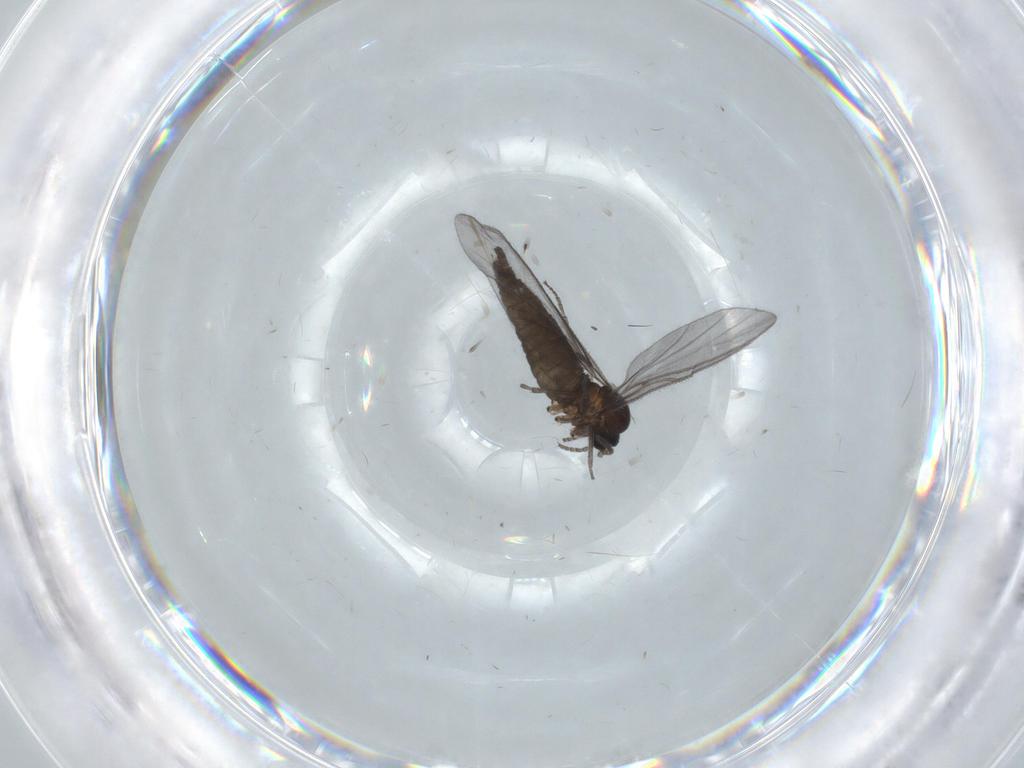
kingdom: Animalia
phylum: Arthropoda
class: Insecta
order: Diptera
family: Sciaridae
